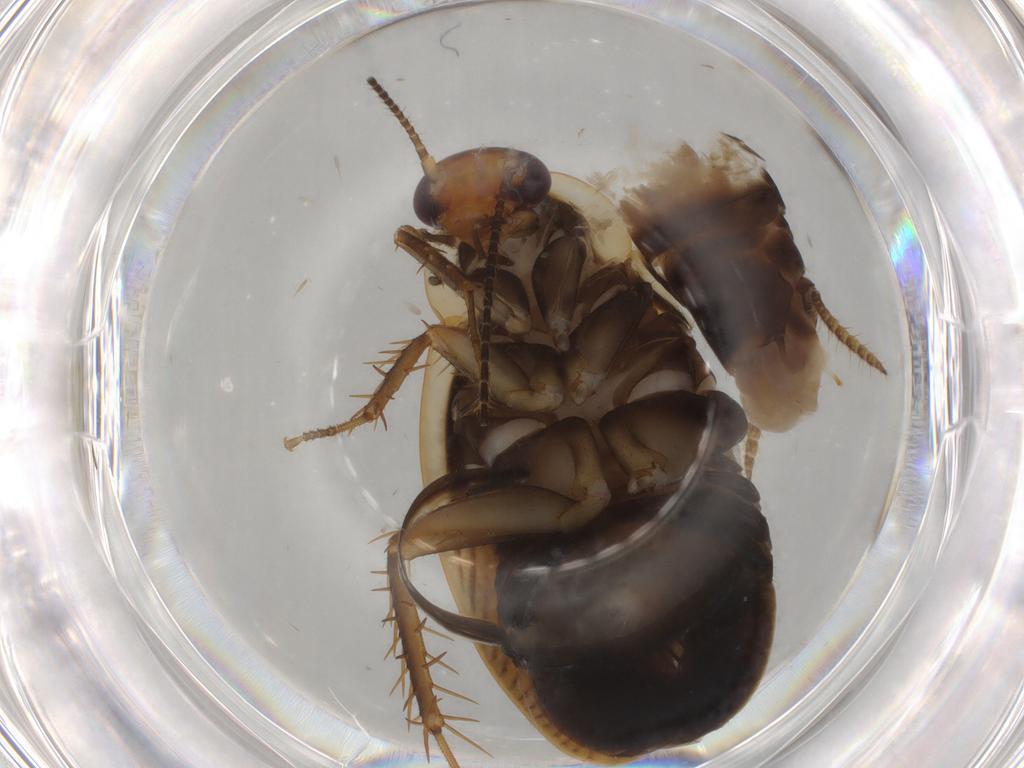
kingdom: Animalia
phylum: Arthropoda
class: Insecta
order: Blattodea
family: Ectobiidae
